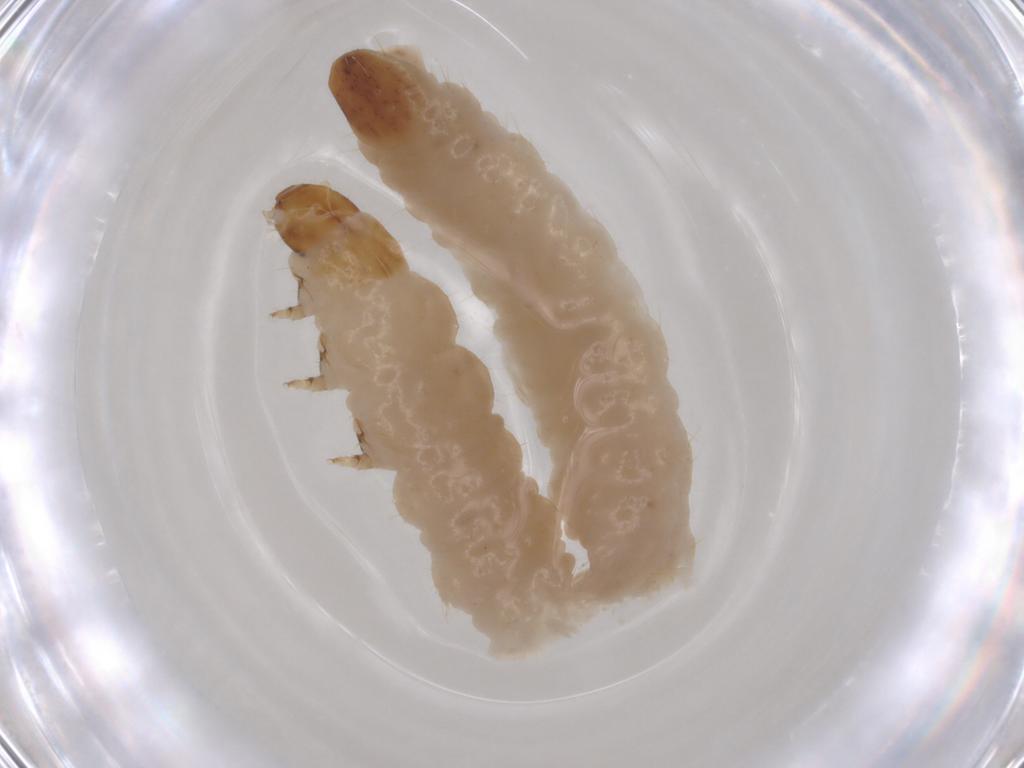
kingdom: Animalia
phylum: Arthropoda
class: Insecta
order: Coleoptera
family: Chrysomelidae
